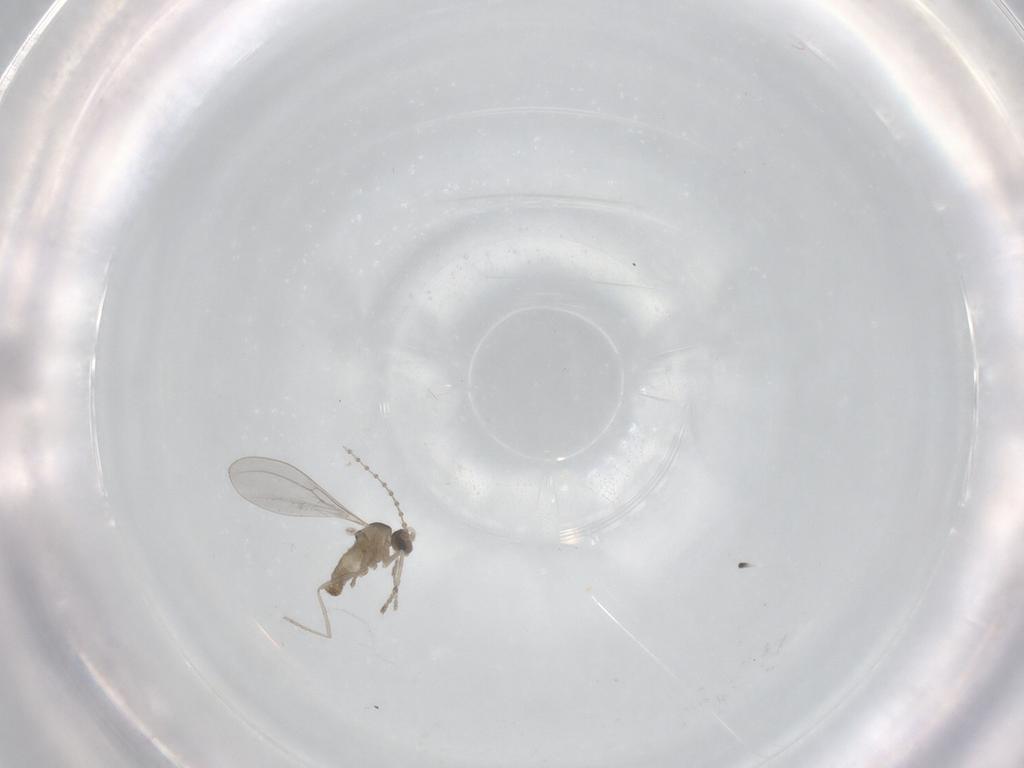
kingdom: Animalia
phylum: Arthropoda
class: Insecta
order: Diptera
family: Cecidomyiidae
